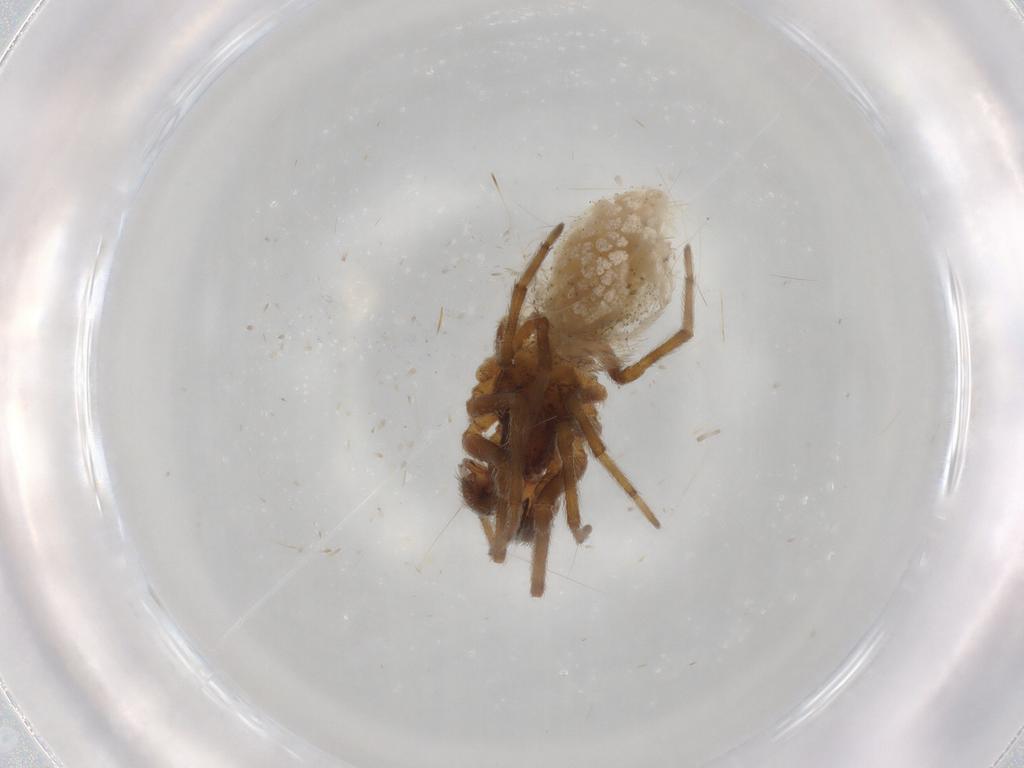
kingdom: Animalia
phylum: Arthropoda
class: Arachnida
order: Araneae
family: Dictynidae
